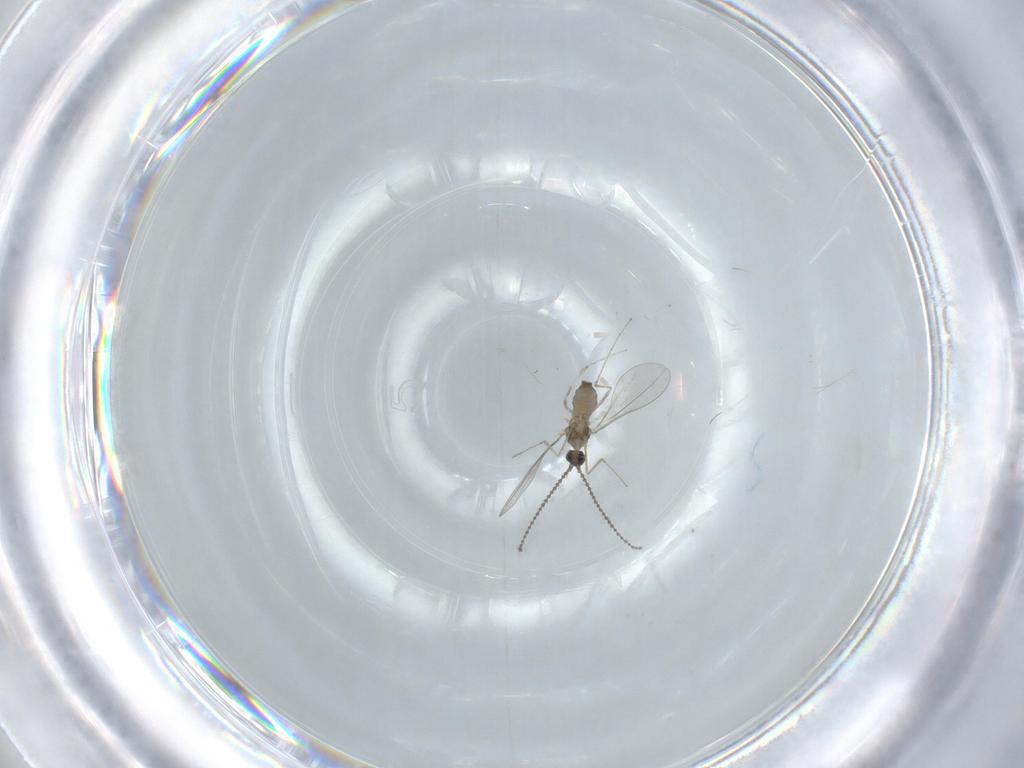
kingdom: Animalia
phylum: Arthropoda
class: Insecta
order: Diptera
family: Cecidomyiidae
